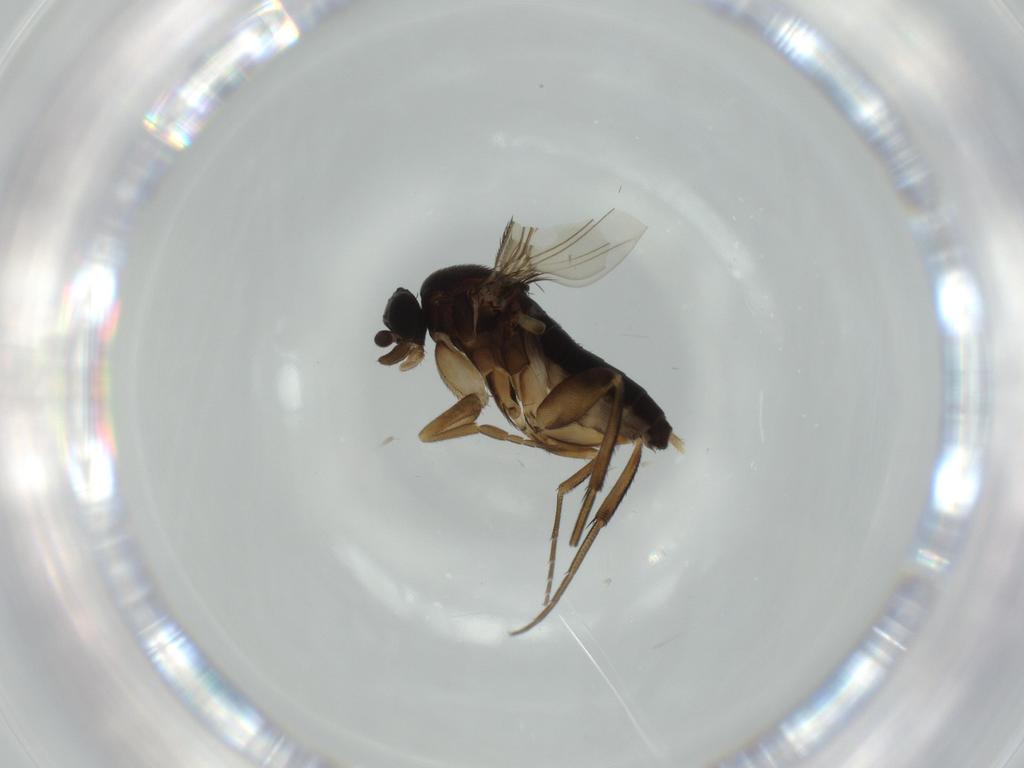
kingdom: Animalia
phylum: Arthropoda
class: Insecta
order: Diptera
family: Phoridae
